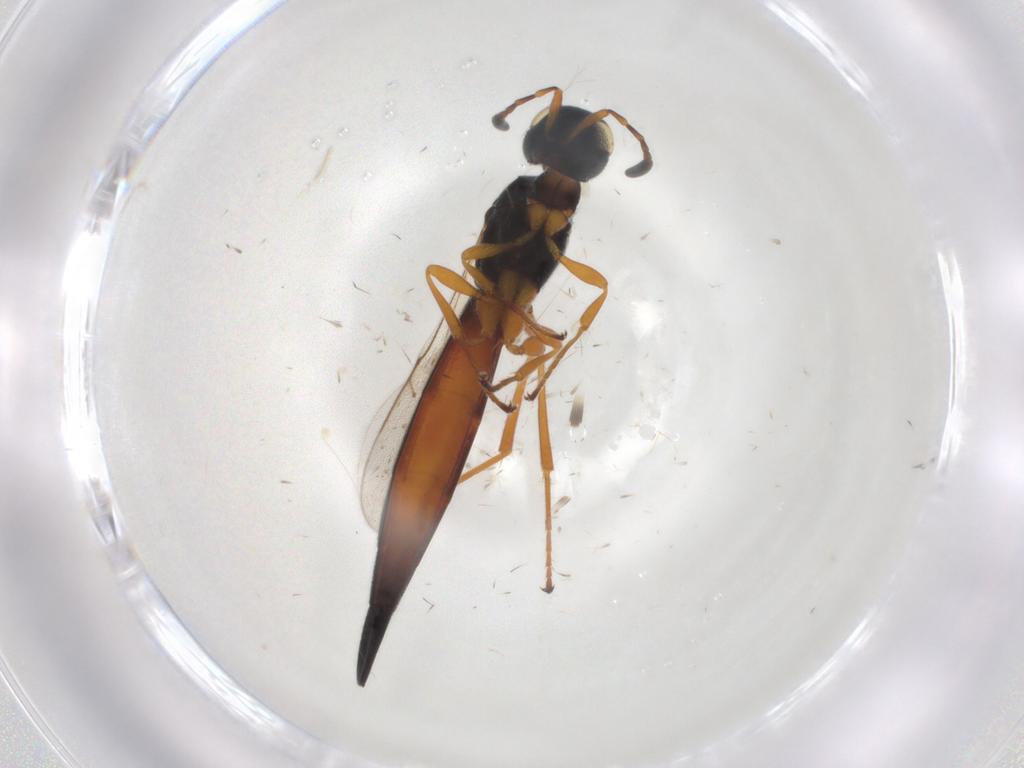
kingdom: Animalia
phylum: Arthropoda
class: Insecta
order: Hymenoptera
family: Scelionidae
